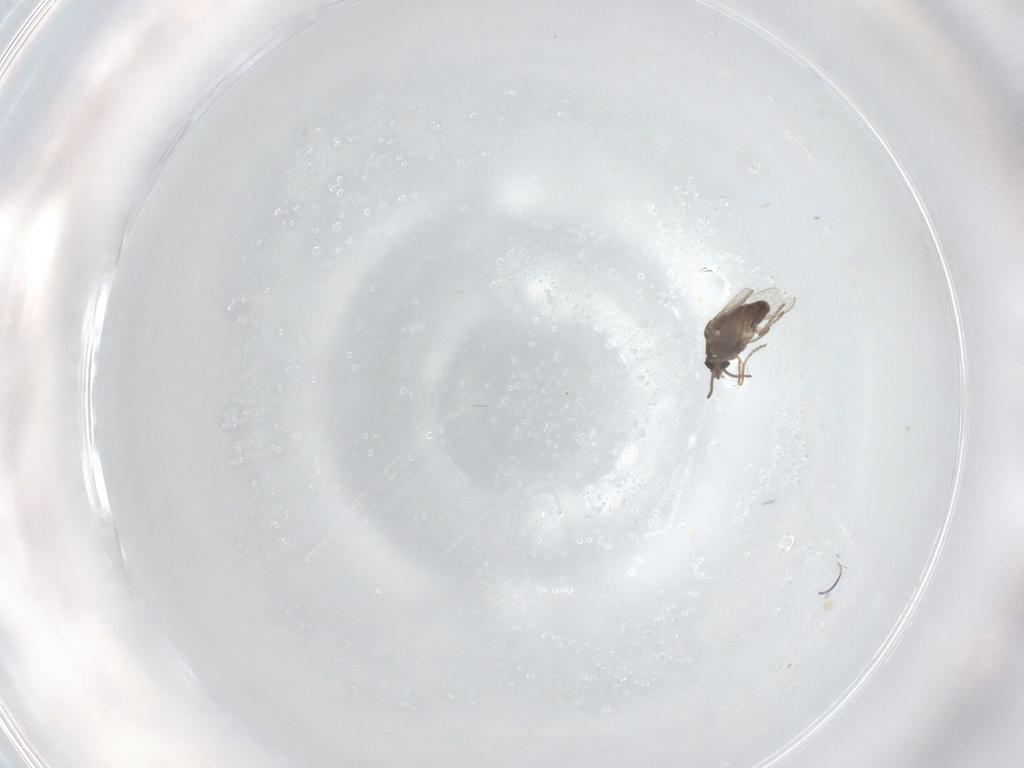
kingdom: Animalia
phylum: Arthropoda
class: Insecta
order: Diptera
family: Ceratopogonidae
